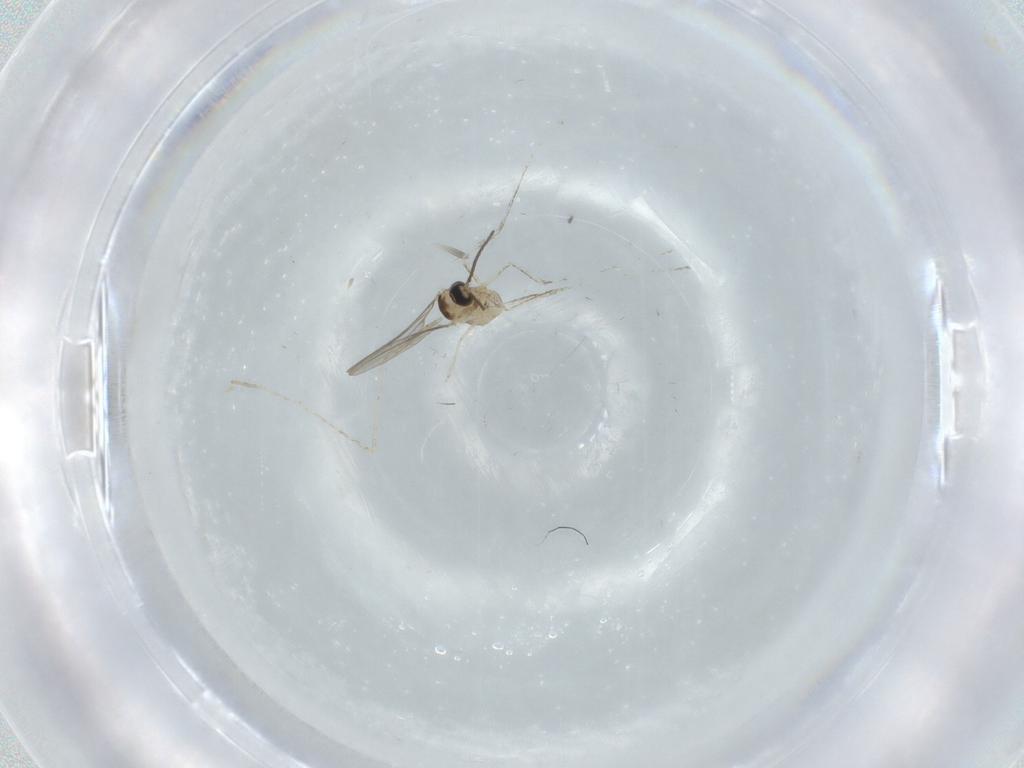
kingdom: Animalia
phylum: Arthropoda
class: Insecta
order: Diptera
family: Cecidomyiidae
